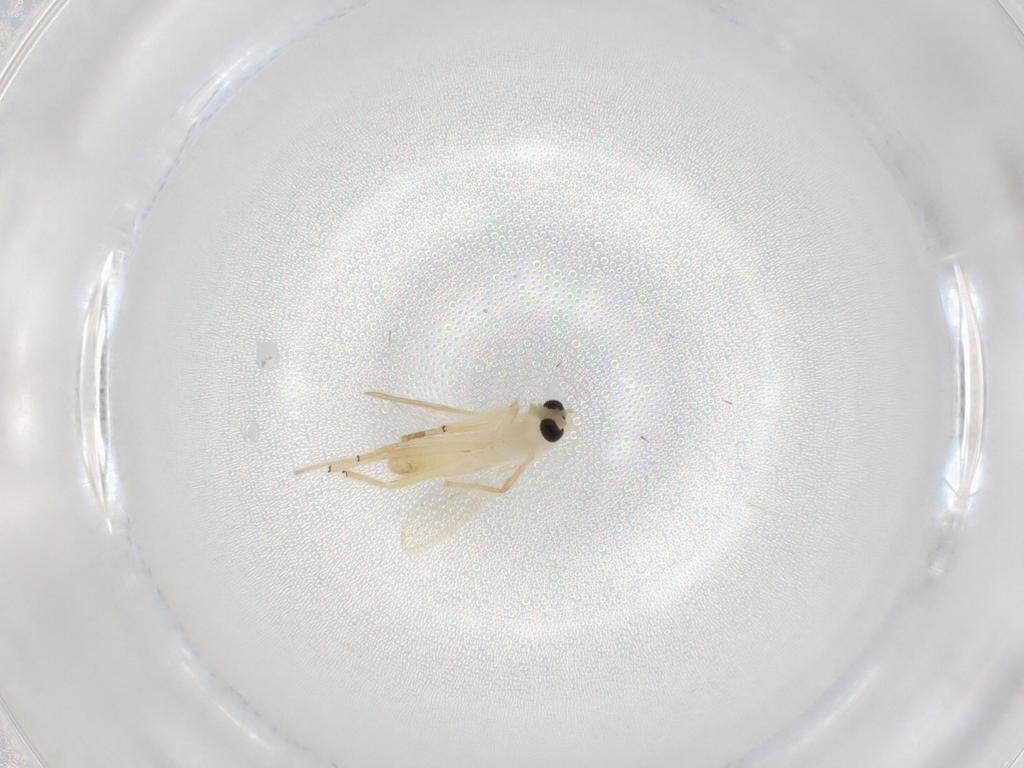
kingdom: Animalia
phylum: Arthropoda
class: Insecta
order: Diptera
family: Chironomidae
